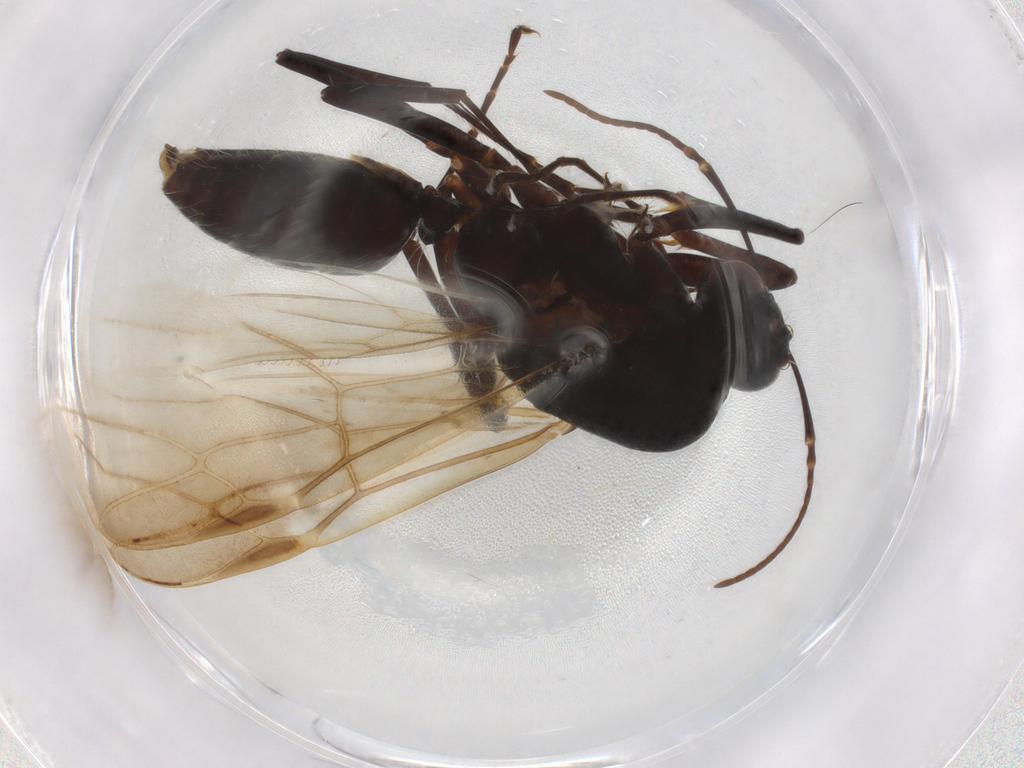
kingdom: Animalia
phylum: Arthropoda
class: Insecta
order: Hymenoptera
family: Formicidae
